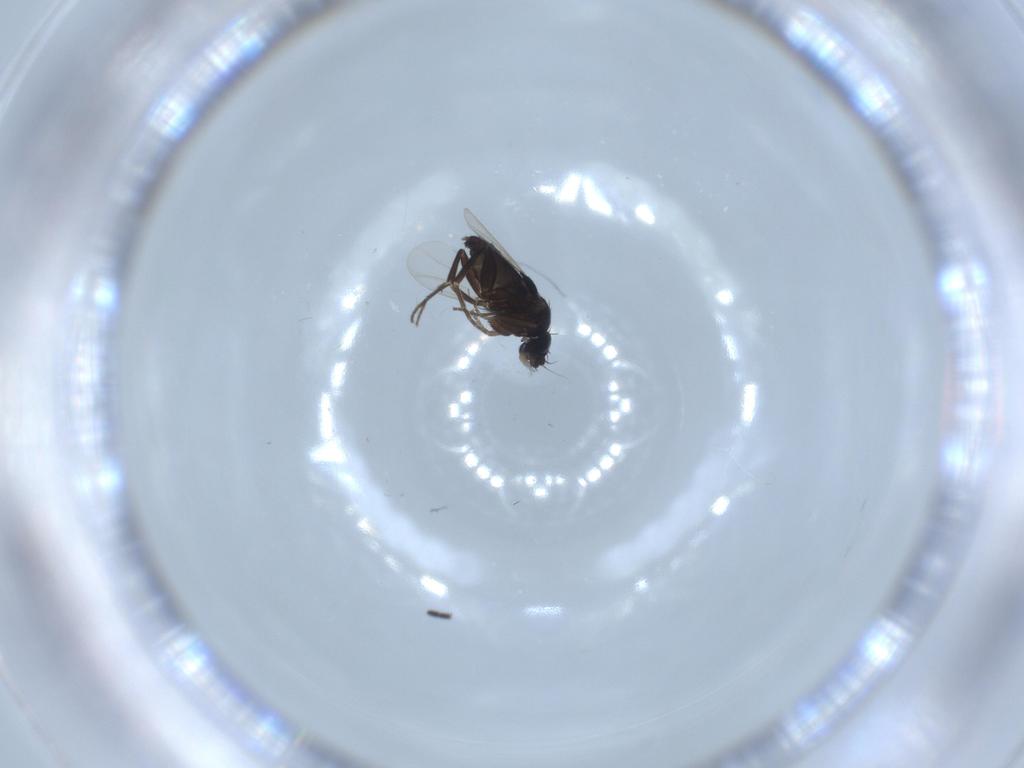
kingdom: Animalia
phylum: Arthropoda
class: Insecta
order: Diptera
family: Phoridae
